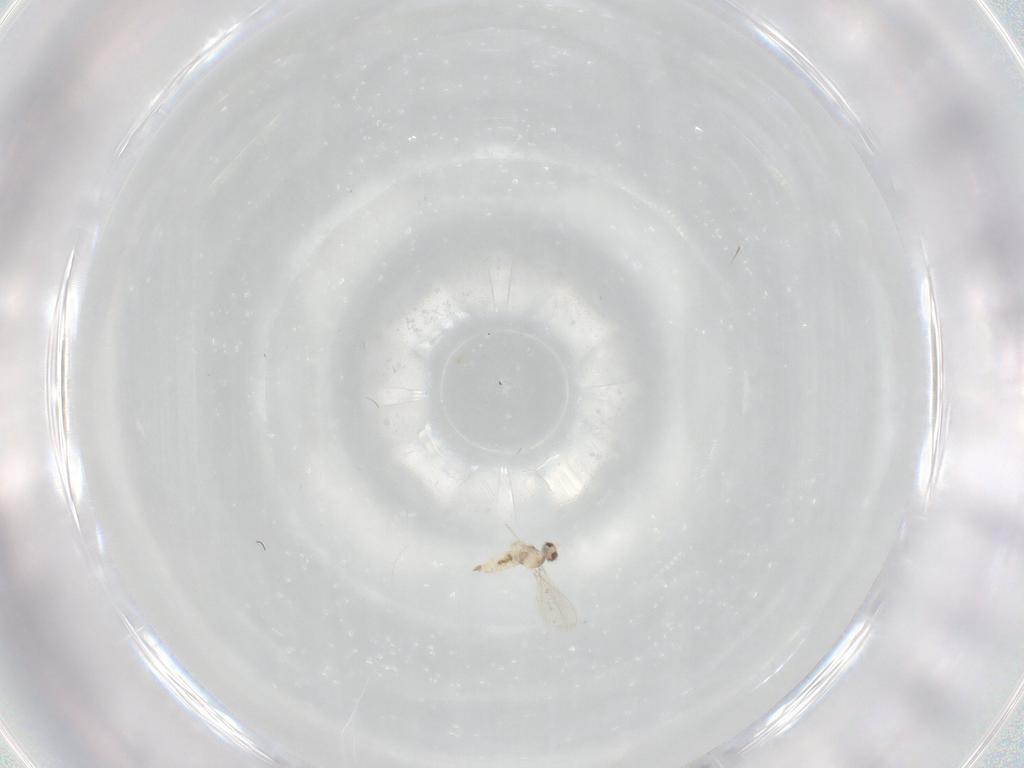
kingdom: Animalia
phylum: Arthropoda
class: Insecta
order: Diptera
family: Cecidomyiidae
